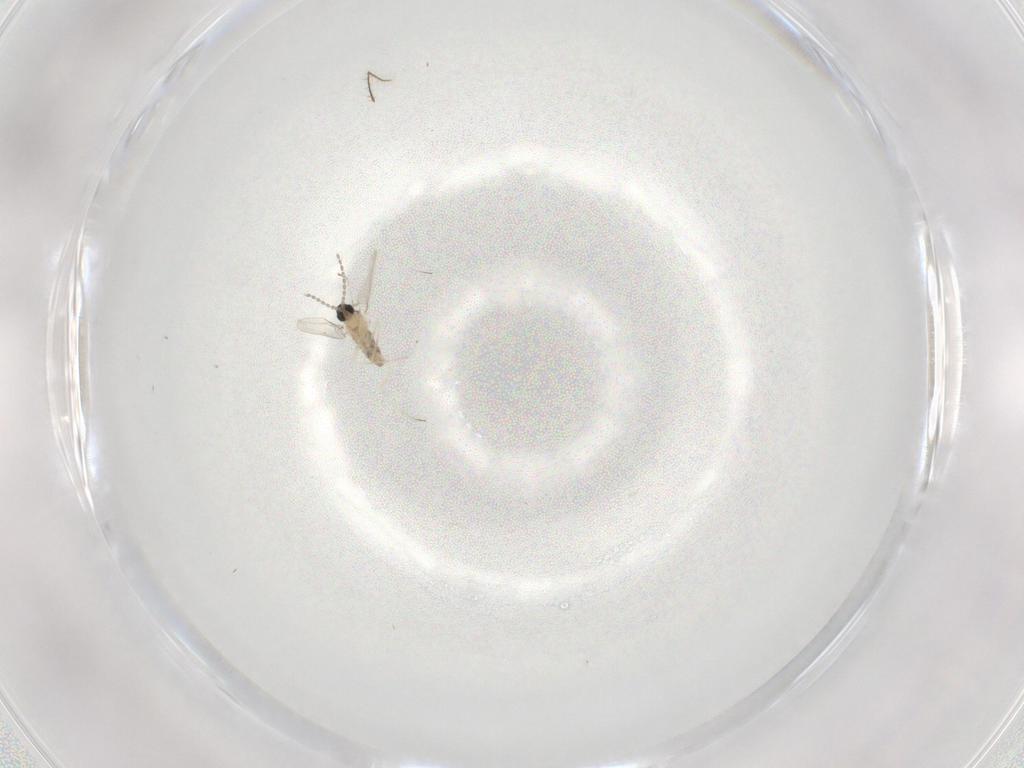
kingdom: Animalia
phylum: Arthropoda
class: Insecta
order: Diptera
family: Cecidomyiidae
